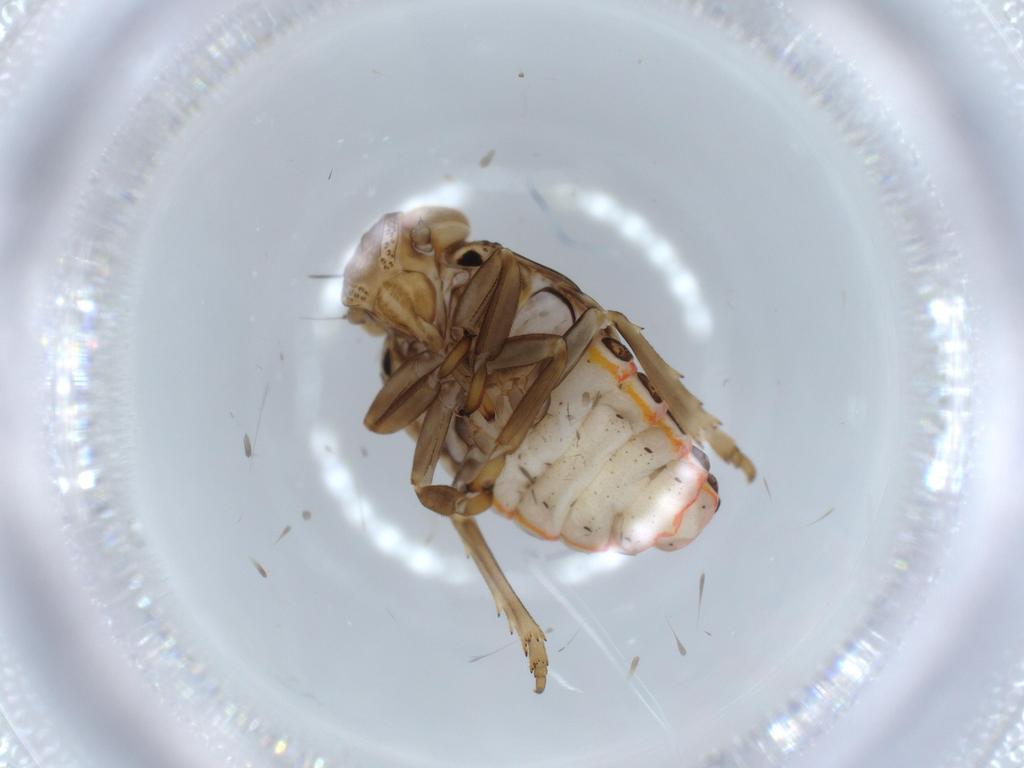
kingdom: Animalia
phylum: Arthropoda
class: Insecta
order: Hemiptera
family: Issidae
